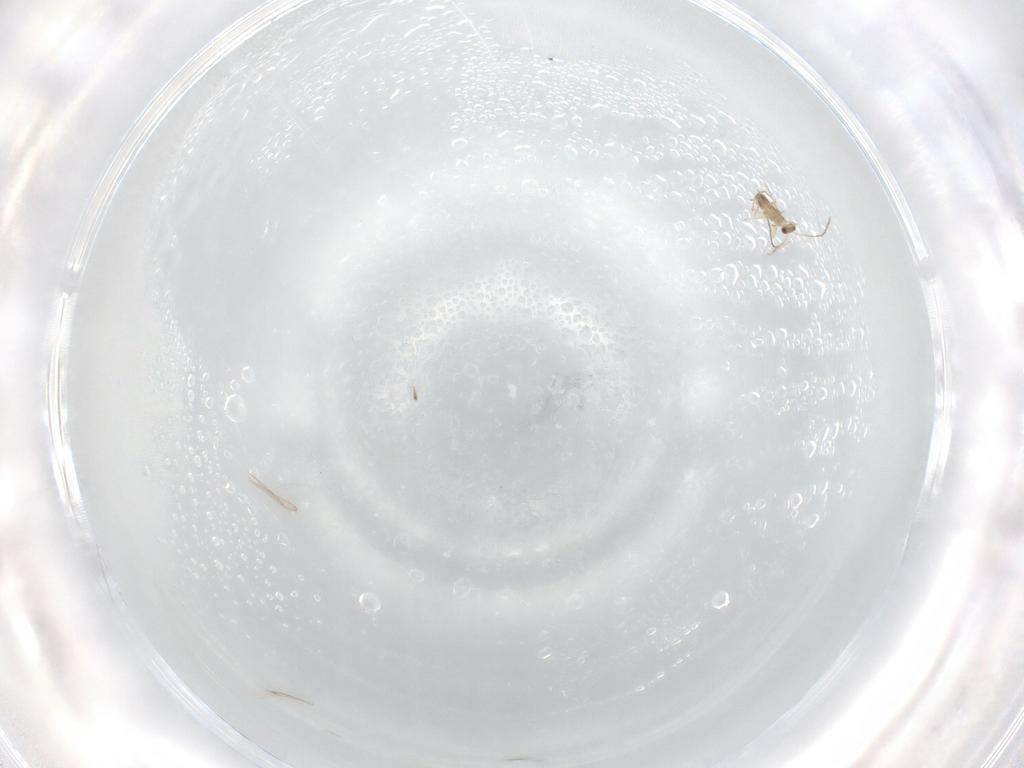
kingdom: Animalia
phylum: Arthropoda
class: Insecta
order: Hymenoptera
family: Mymaridae
